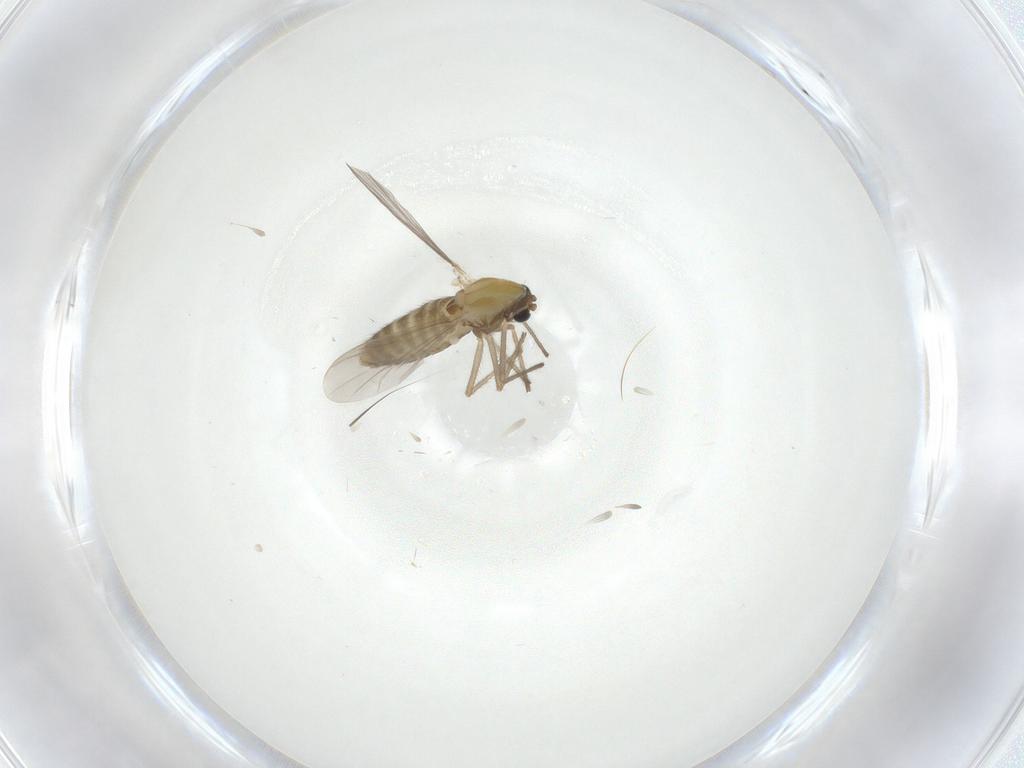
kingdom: Animalia
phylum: Arthropoda
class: Insecta
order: Diptera
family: Chironomidae
